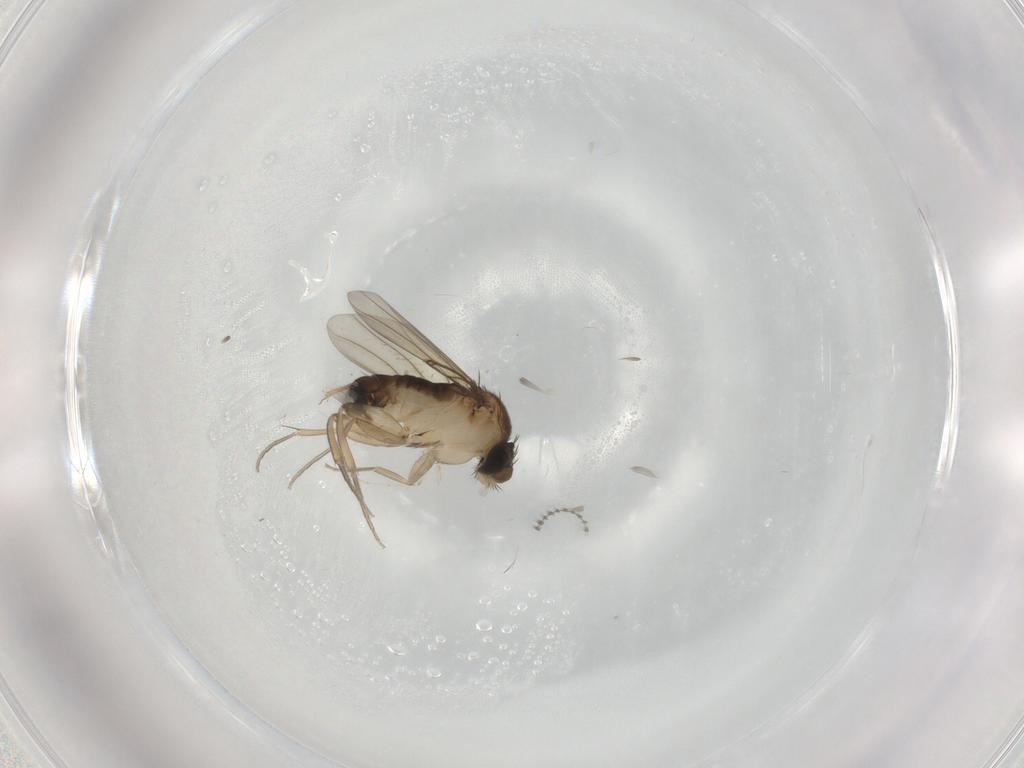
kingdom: Animalia
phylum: Arthropoda
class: Insecta
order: Diptera
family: Phoridae
